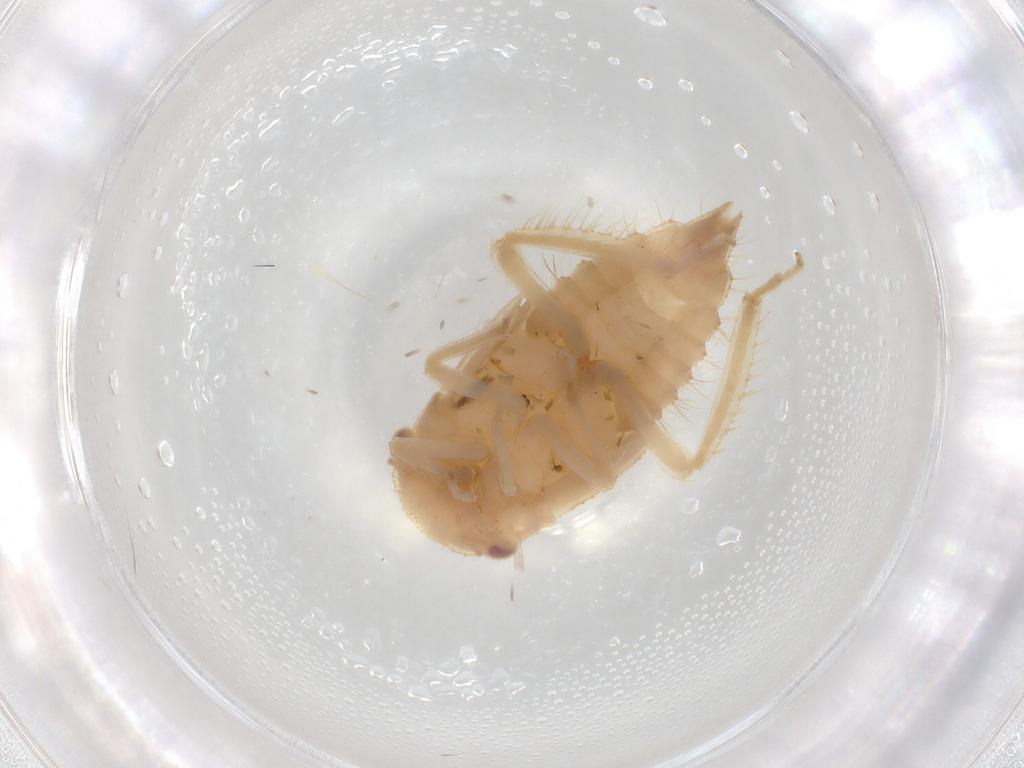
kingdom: Animalia
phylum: Arthropoda
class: Insecta
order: Hemiptera
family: Cicadellidae
